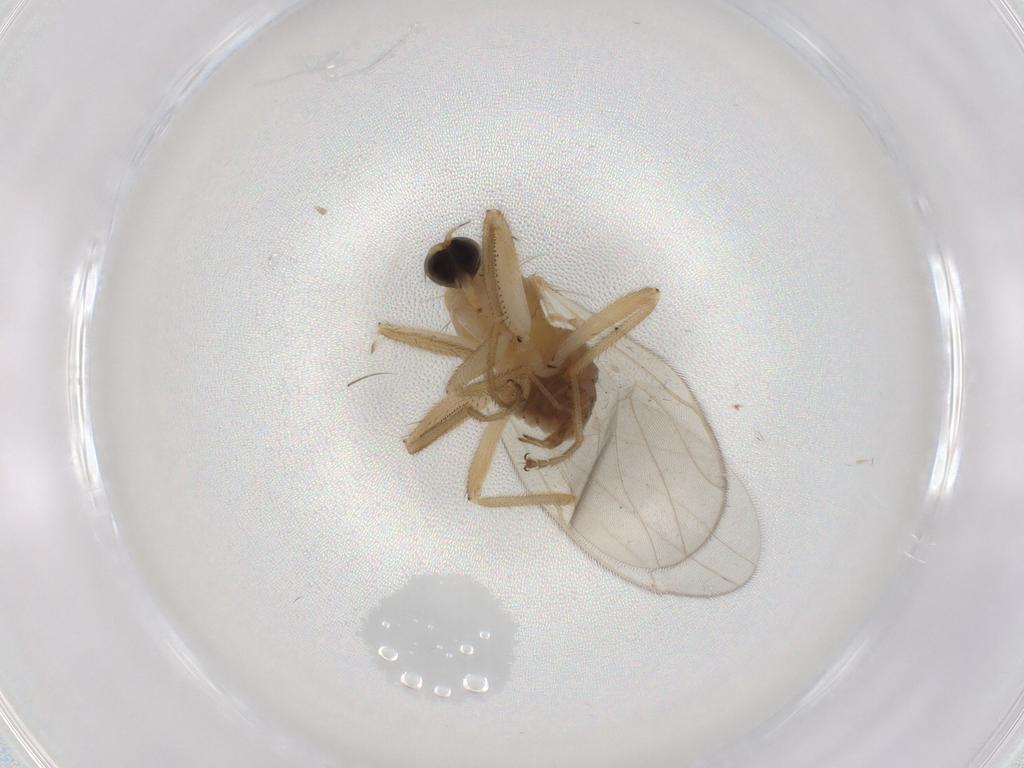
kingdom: Animalia
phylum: Arthropoda
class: Insecta
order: Diptera
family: Hybotidae
